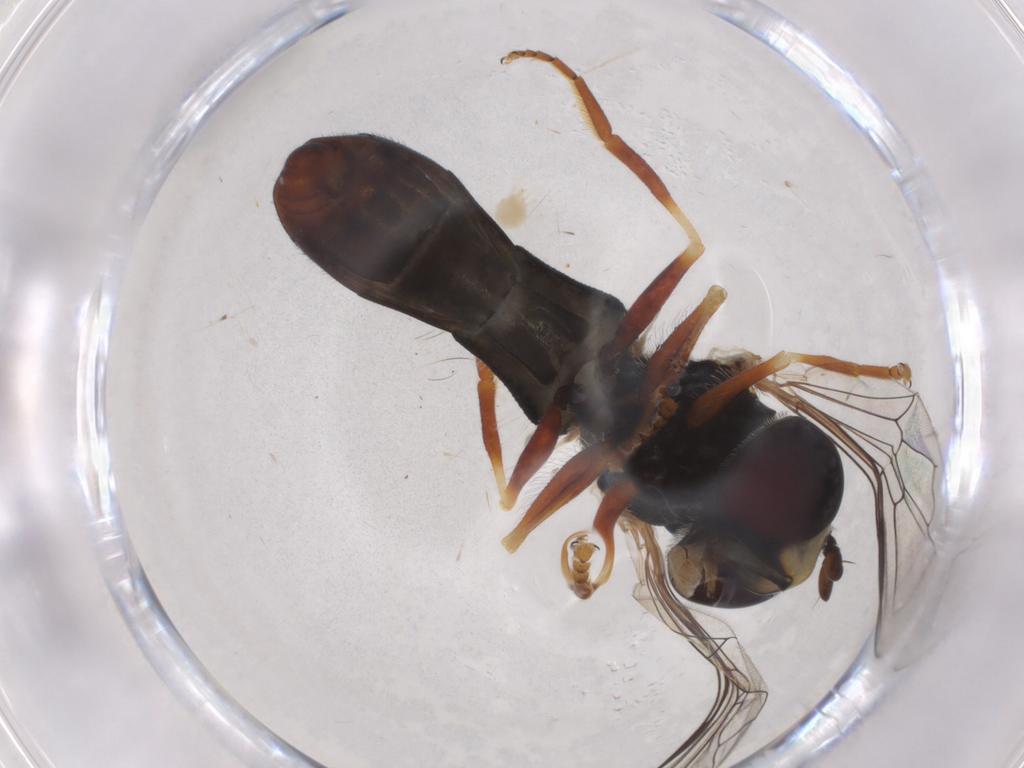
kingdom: Animalia
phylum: Arthropoda
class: Insecta
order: Diptera
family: Syrphidae
